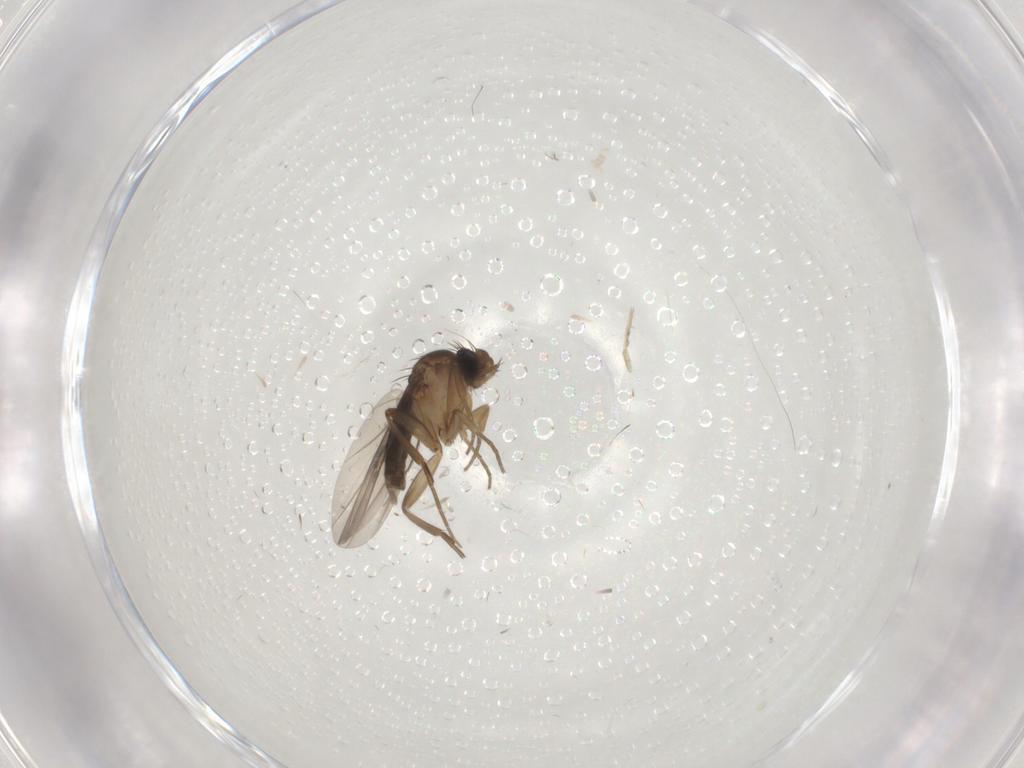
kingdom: Animalia
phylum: Arthropoda
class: Insecta
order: Diptera
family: Chironomidae
